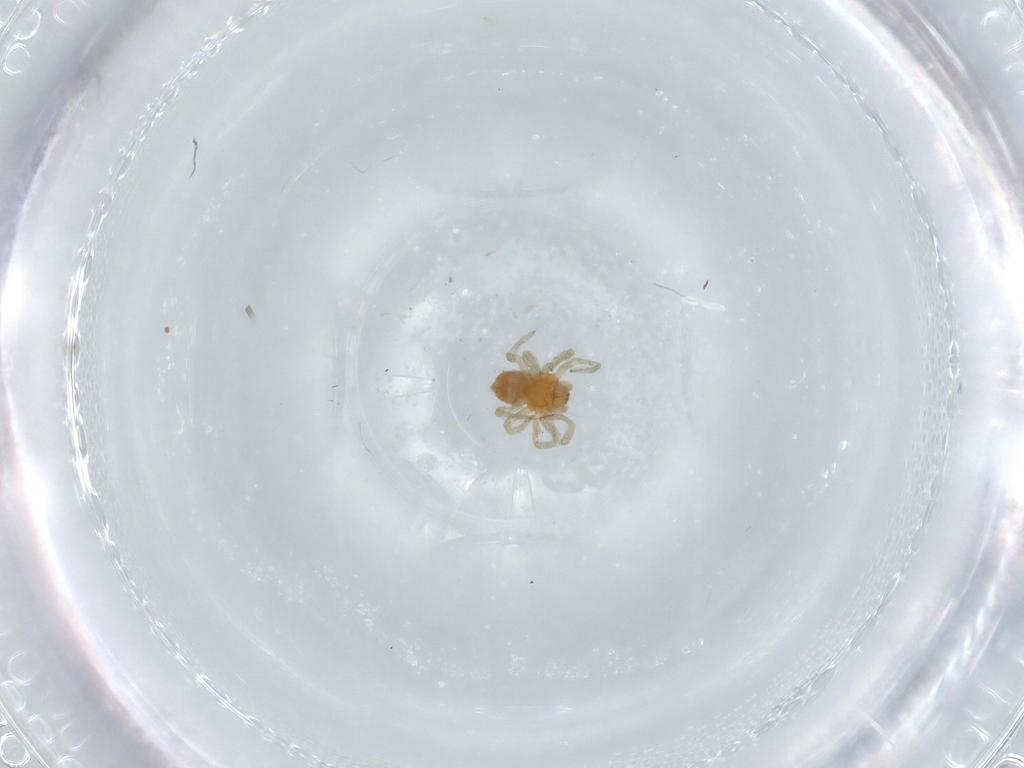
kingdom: Animalia
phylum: Arthropoda
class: Arachnida
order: Araneae
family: Dictynidae
